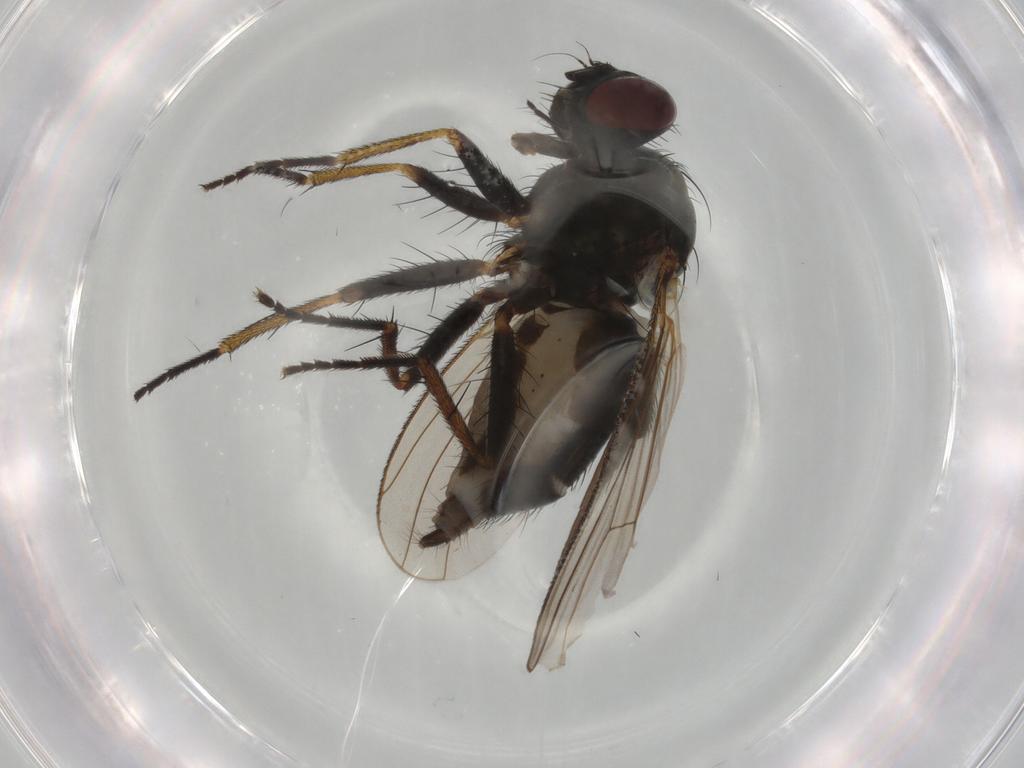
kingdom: Animalia
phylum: Arthropoda
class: Insecta
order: Diptera
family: Muscidae
